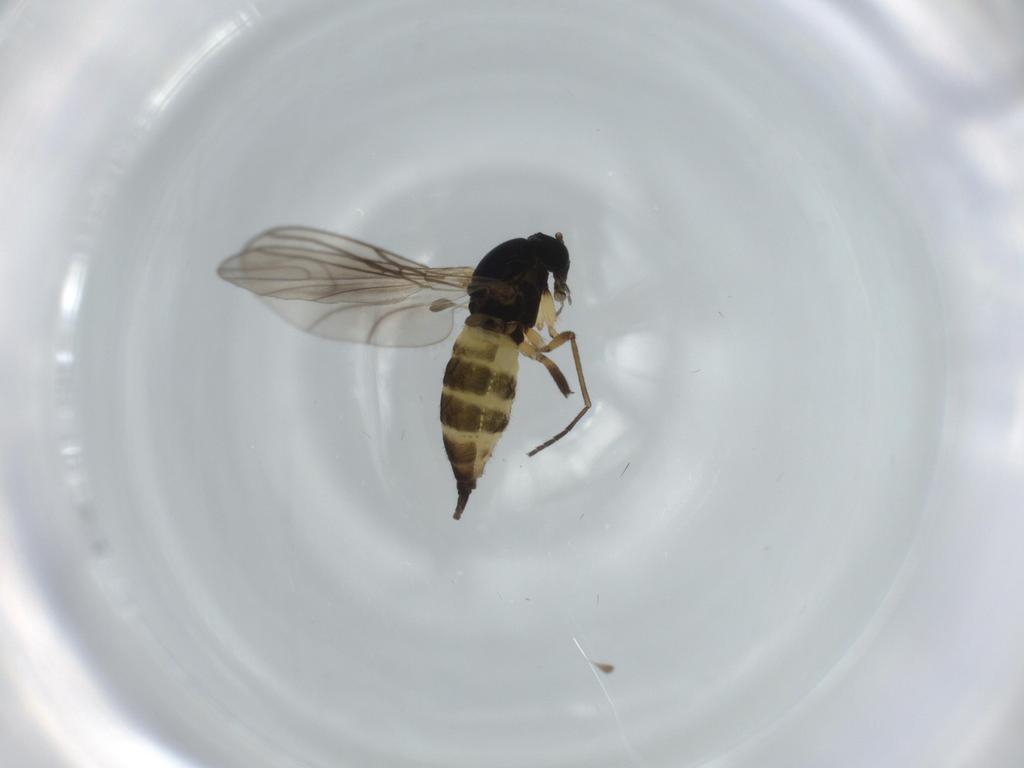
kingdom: Animalia
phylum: Arthropoda
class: Insecta
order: Diptera
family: Sciaridae
